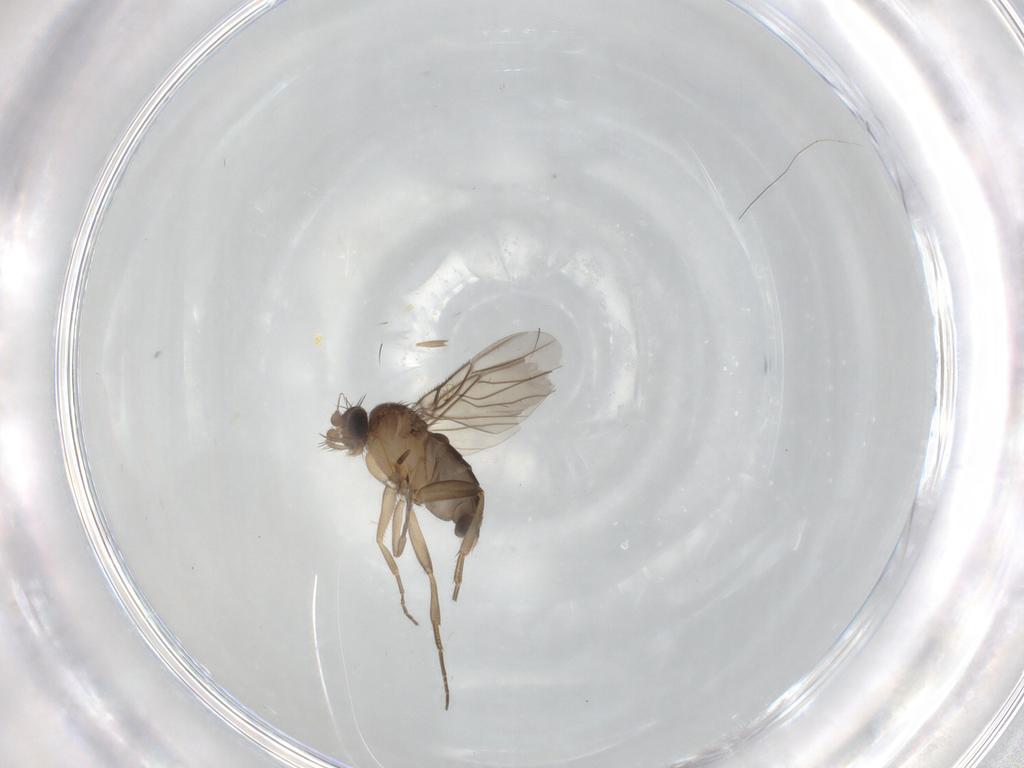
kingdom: Animalia
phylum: Arthropoda
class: Insecta
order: Diptera
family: Phoridae
